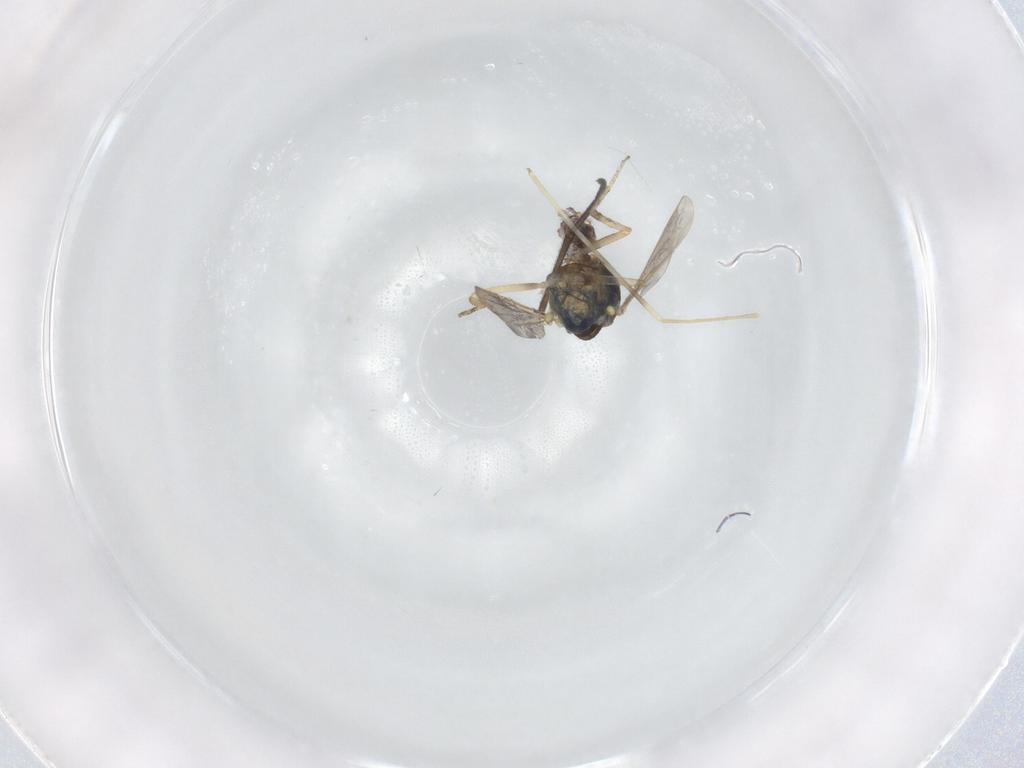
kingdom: Animalia
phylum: Arthropoda
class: Insecta
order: Diptera
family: Ceratopogonidae
